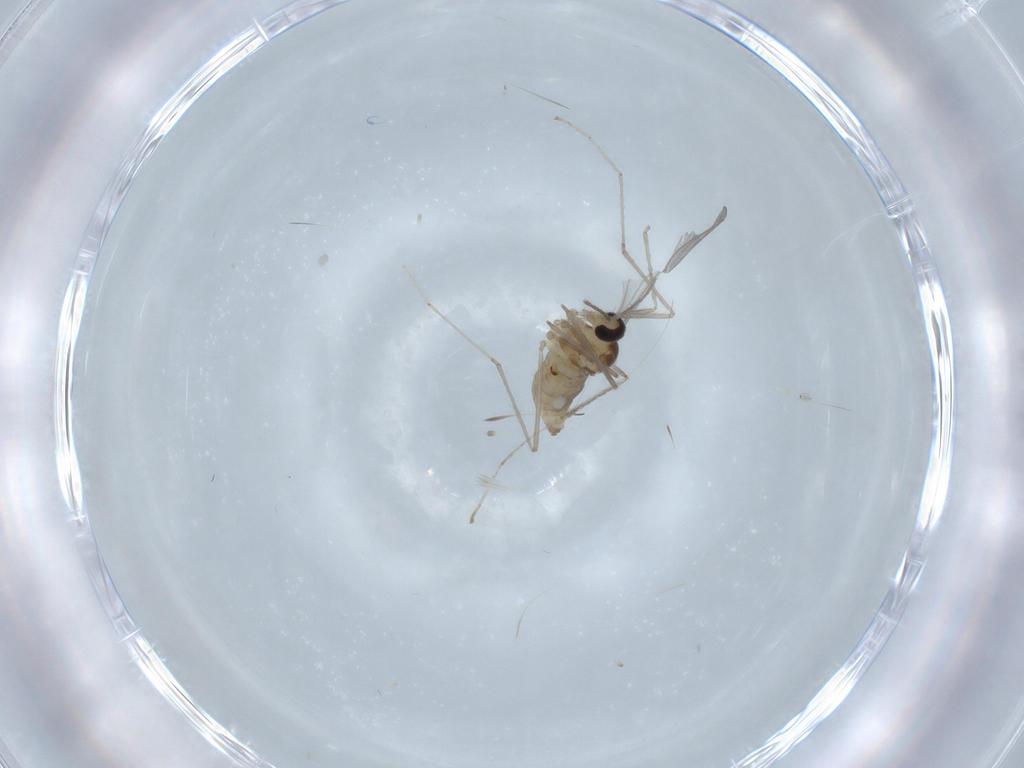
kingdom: Animalia
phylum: Arthropoda
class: Insecta
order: Diptera
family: Cecidomyiidae
